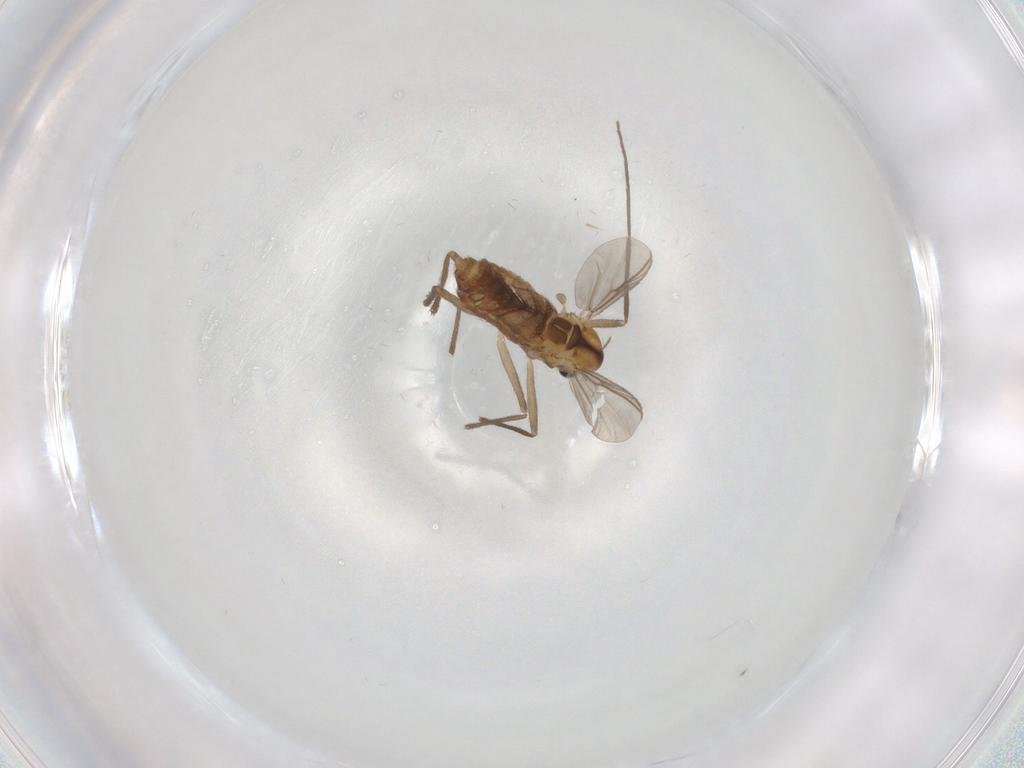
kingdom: Animalia
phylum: Arthropoda
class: Insecta
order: Diptera
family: Chironomidae
